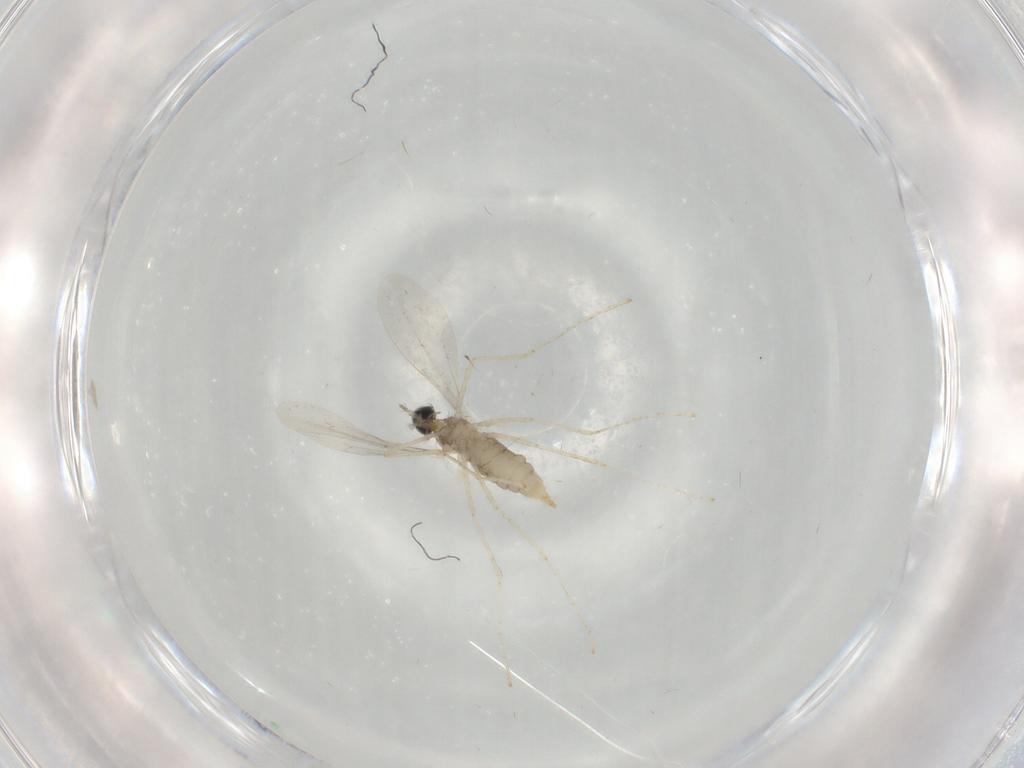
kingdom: Animalia
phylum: Arthropoda
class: Insecta
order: Diptera
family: Cecidomyiidae
